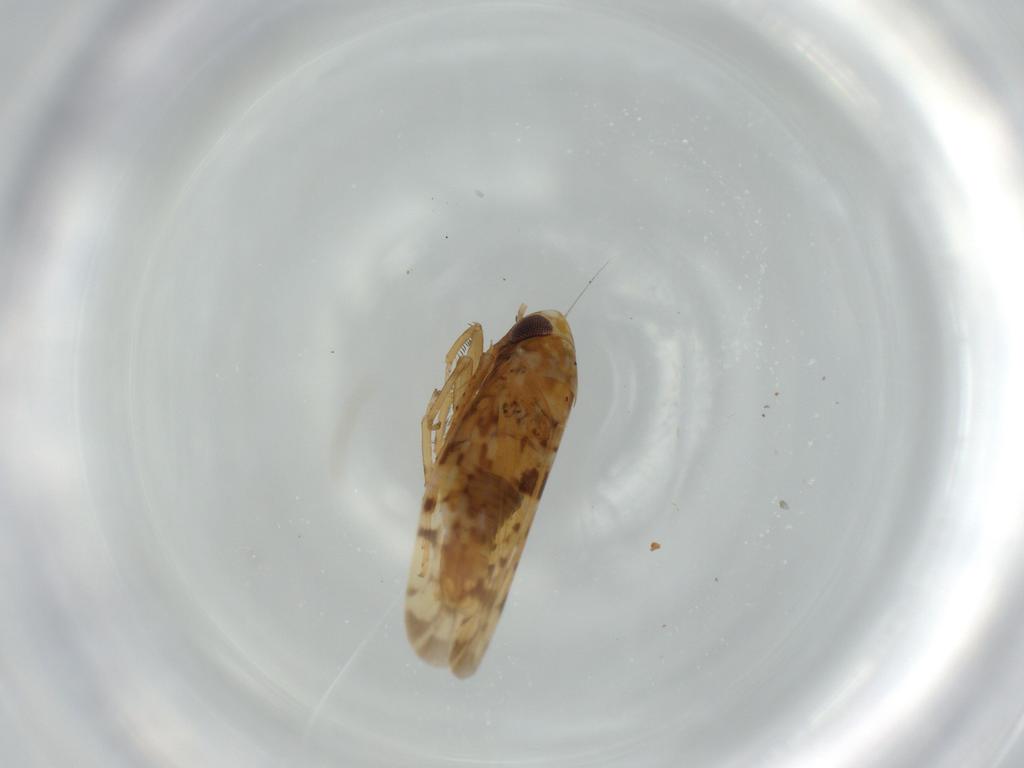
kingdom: Animalia
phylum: Arthropoda
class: Insecta
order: Hemiptera
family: Cicadellidae
